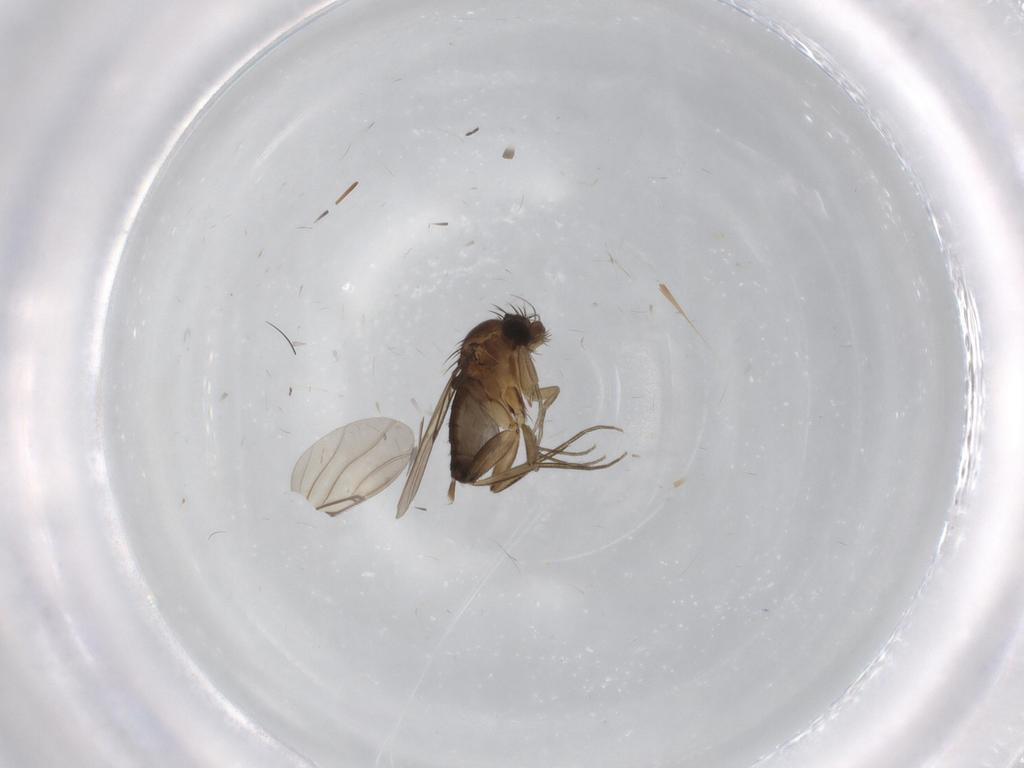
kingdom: Animalia
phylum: Arthropoda
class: Insecta
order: Diptera
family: Phoridae
